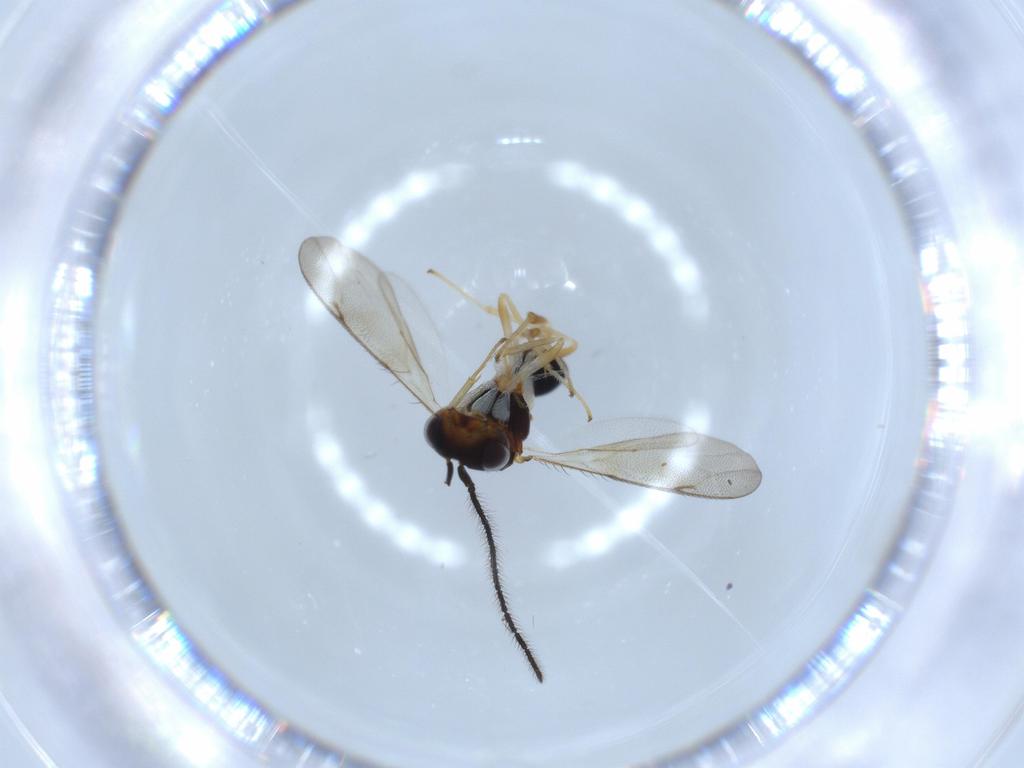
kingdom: Animalia
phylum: Arthropoda
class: Insecta
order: Hymenoptera
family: Diparidae
